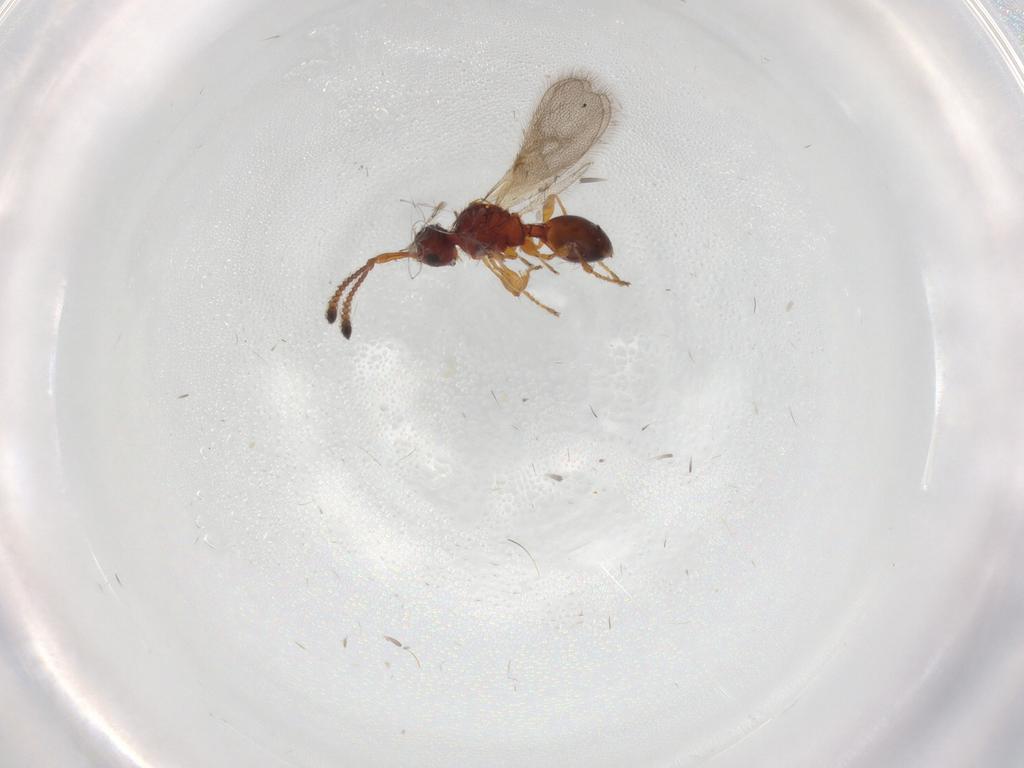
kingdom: Animalia
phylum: Arthropoda
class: Insecta
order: Hymenoptera
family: Diapriidae
